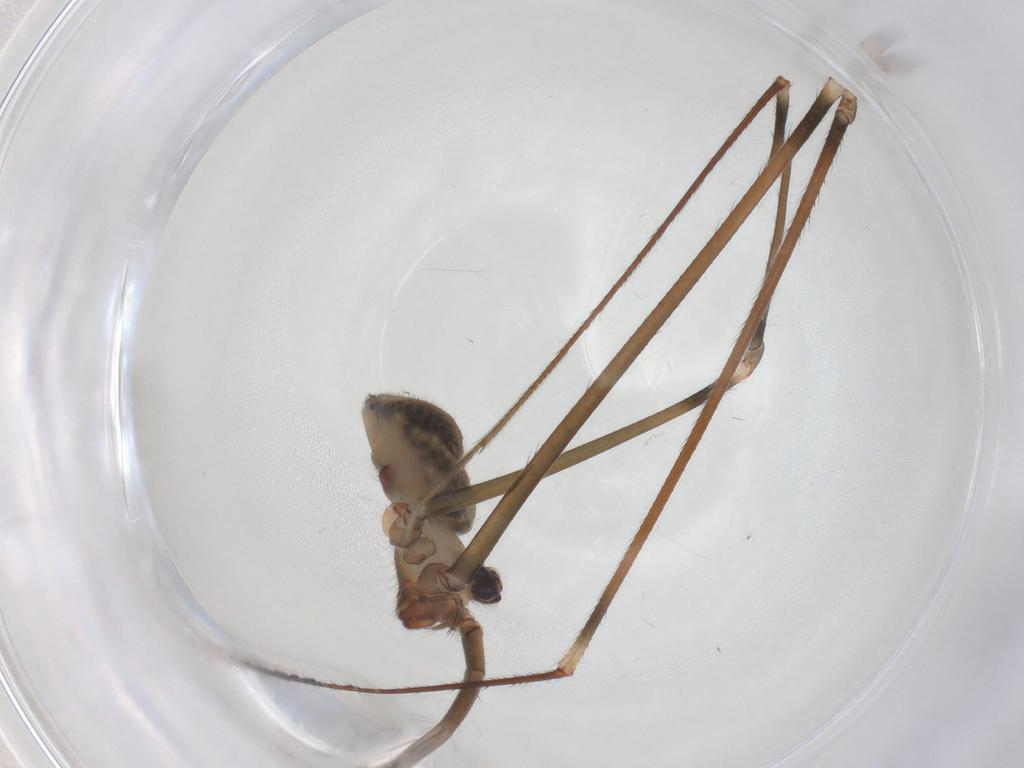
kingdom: Animalia
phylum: Arthropoda
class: Arachnida
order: Araneae
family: Pholcidae
